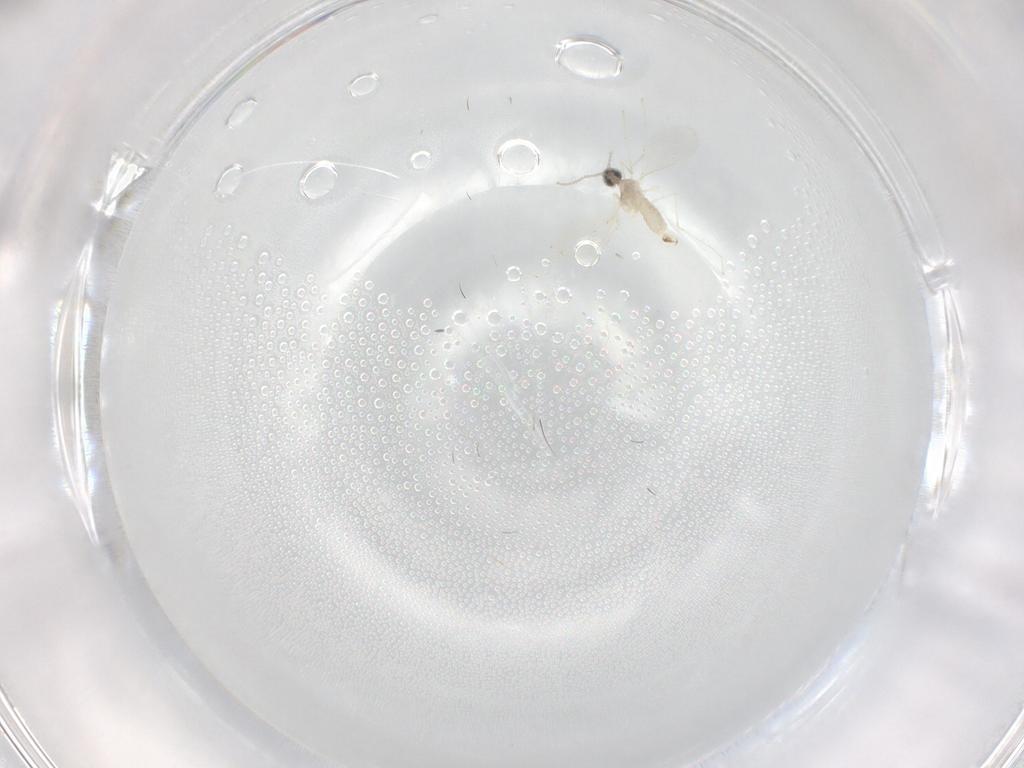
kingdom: Animalia
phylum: Arthropoda
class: Insecta
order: Diptera
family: Cecidomyiidae
